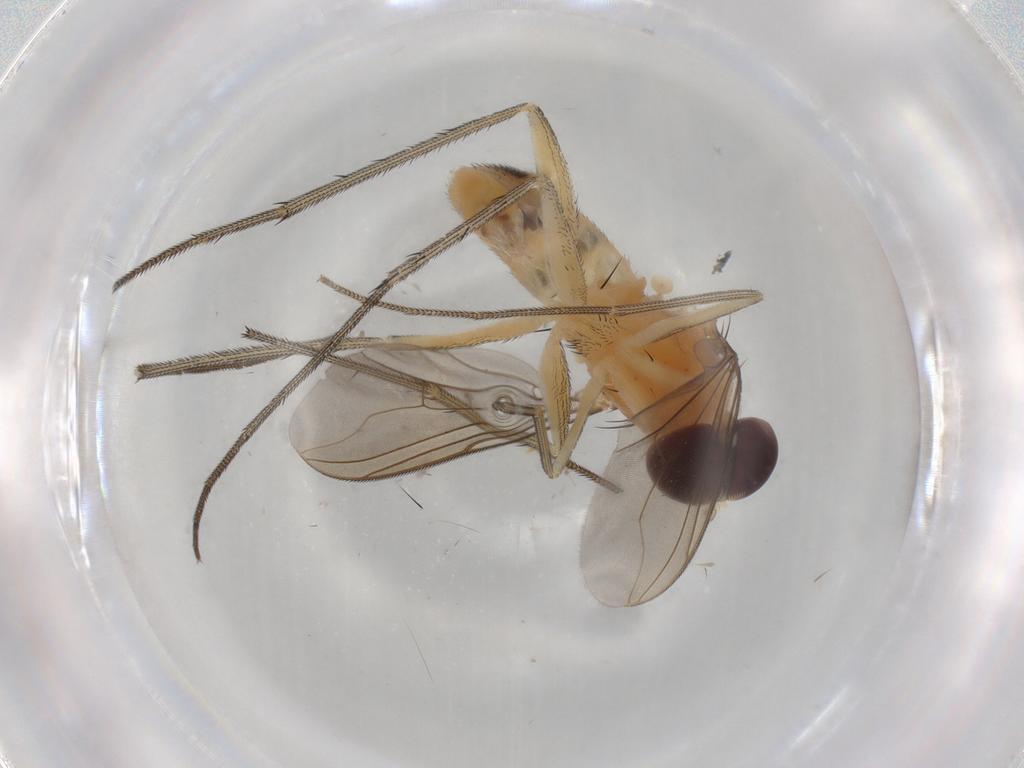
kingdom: Animalia
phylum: Arthropoda
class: Insecta
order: Diptera
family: Dolichopodidae
